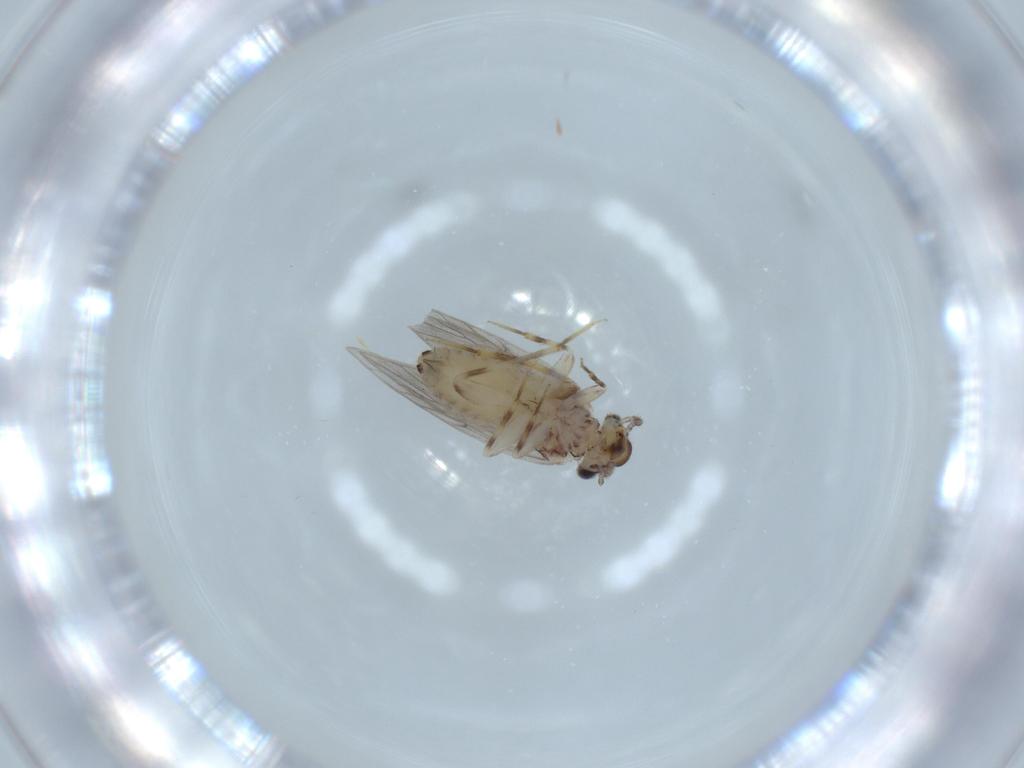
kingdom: Animalia
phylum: Arthropoda
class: Insecta
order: Psocodea
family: Lepidopsocidae
